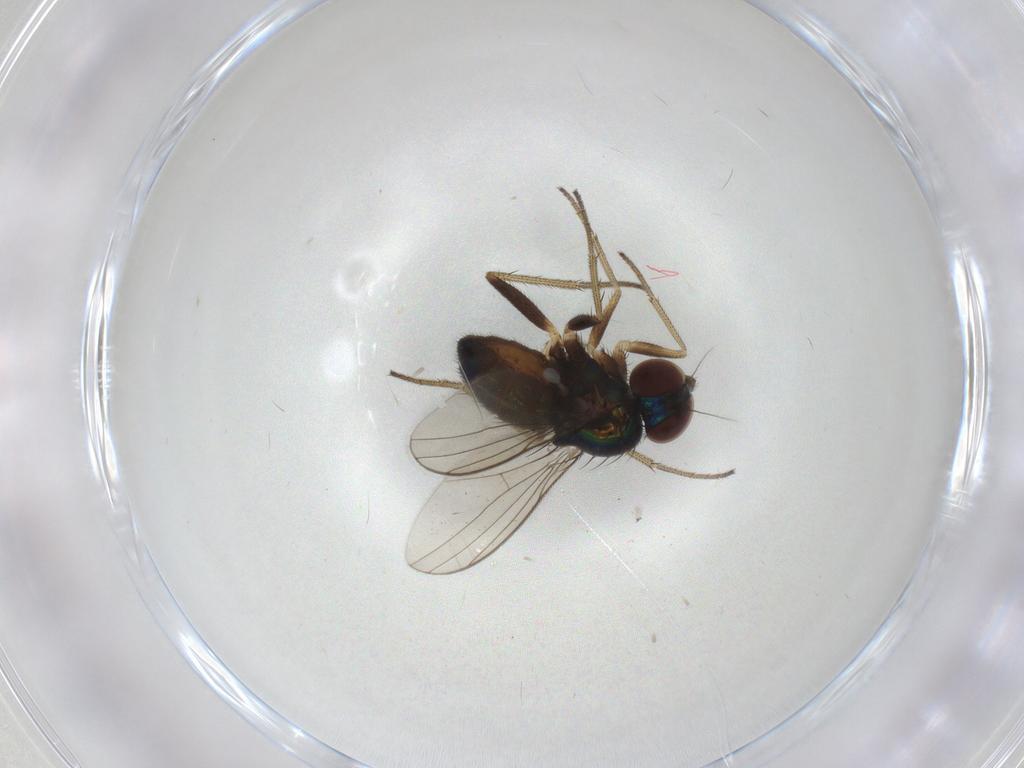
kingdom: Animalia
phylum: Arthropoda
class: Insecta
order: Diptera
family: Dolichopodidae
